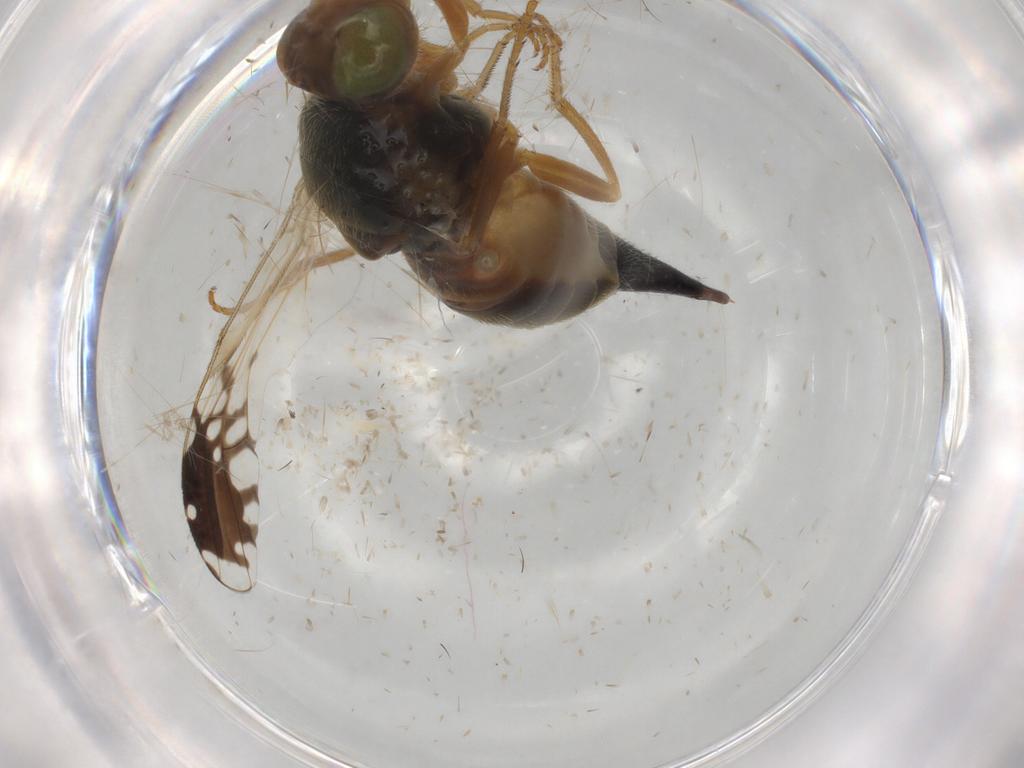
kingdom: Animalia
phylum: Arthropoda
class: Insecta
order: Diptera
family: Tephritidae
